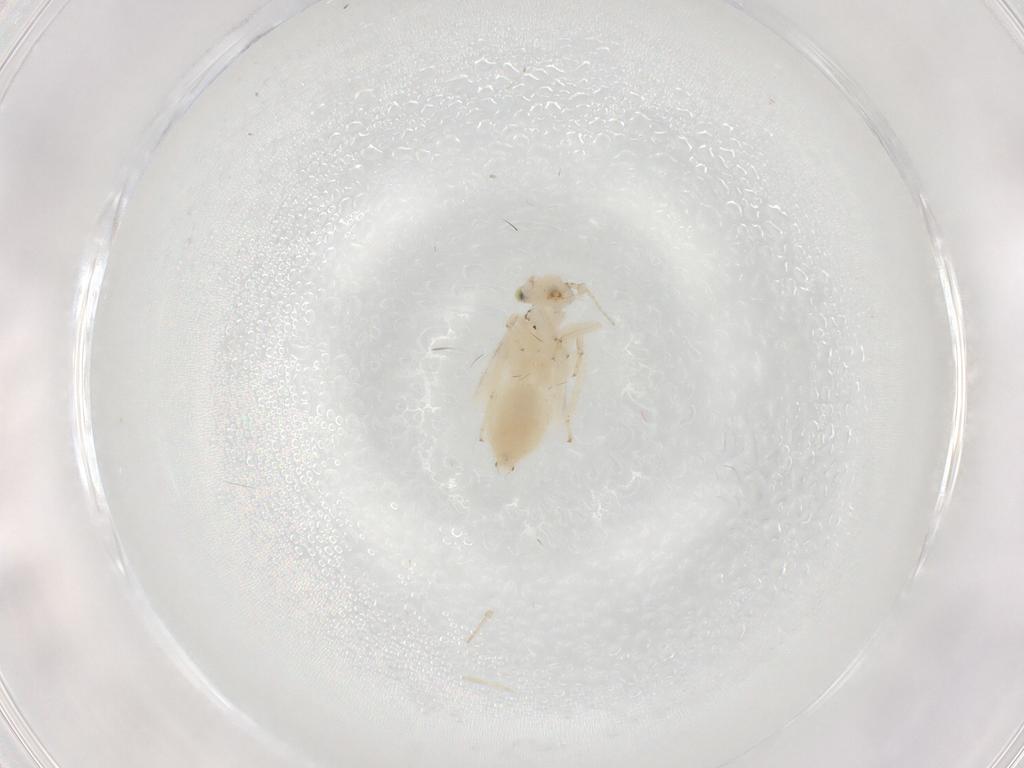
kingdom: Animalia
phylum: Arthropoda
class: Insecta
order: Psocodea
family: Lepidopsocidae
